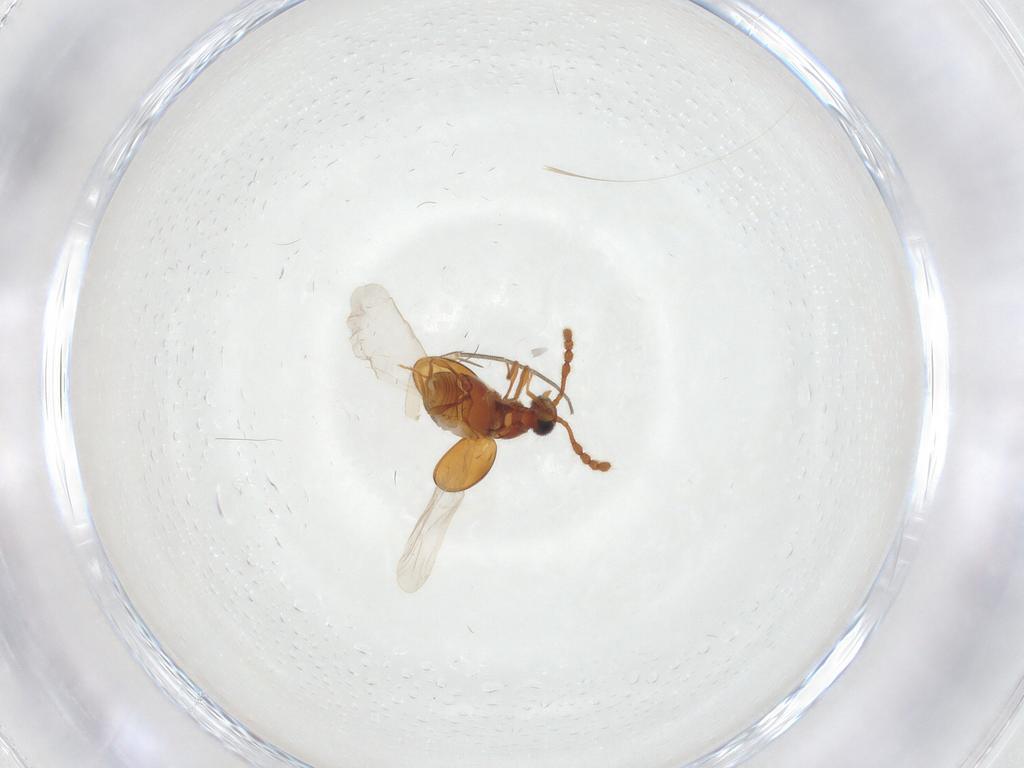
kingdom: Animalia
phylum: Arthropoda
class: Insecta
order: Coleoptera
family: Staphylinidae
